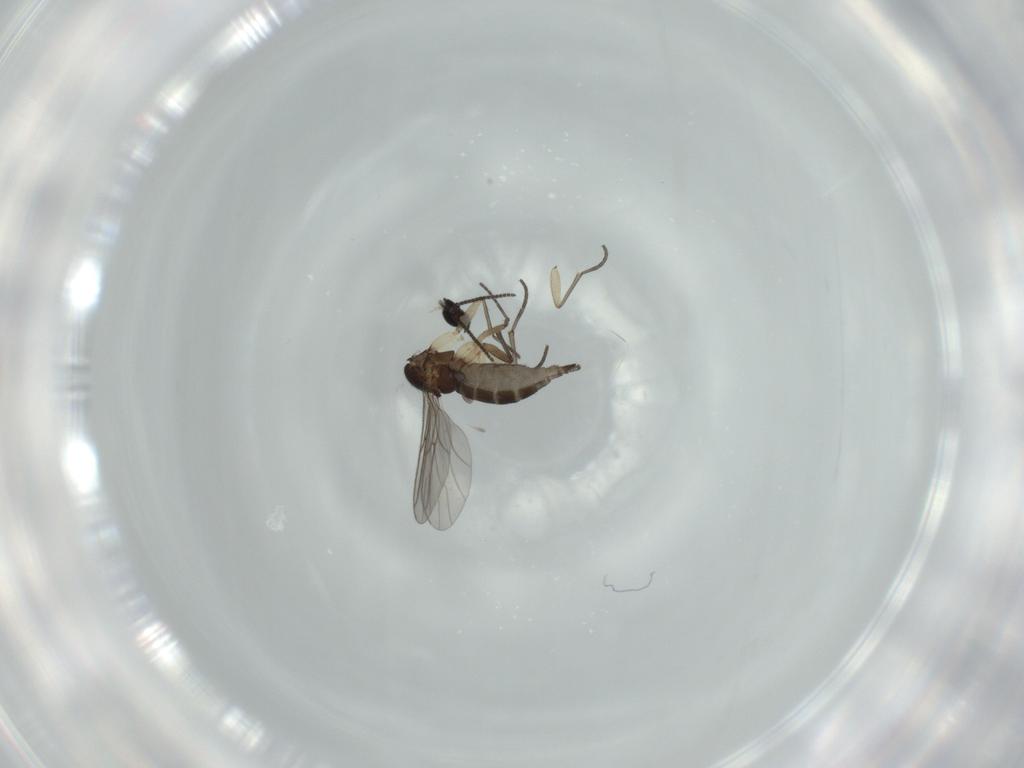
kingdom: Animalia
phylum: Arthropoda
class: Insecta
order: Diptera
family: Sciaridae
